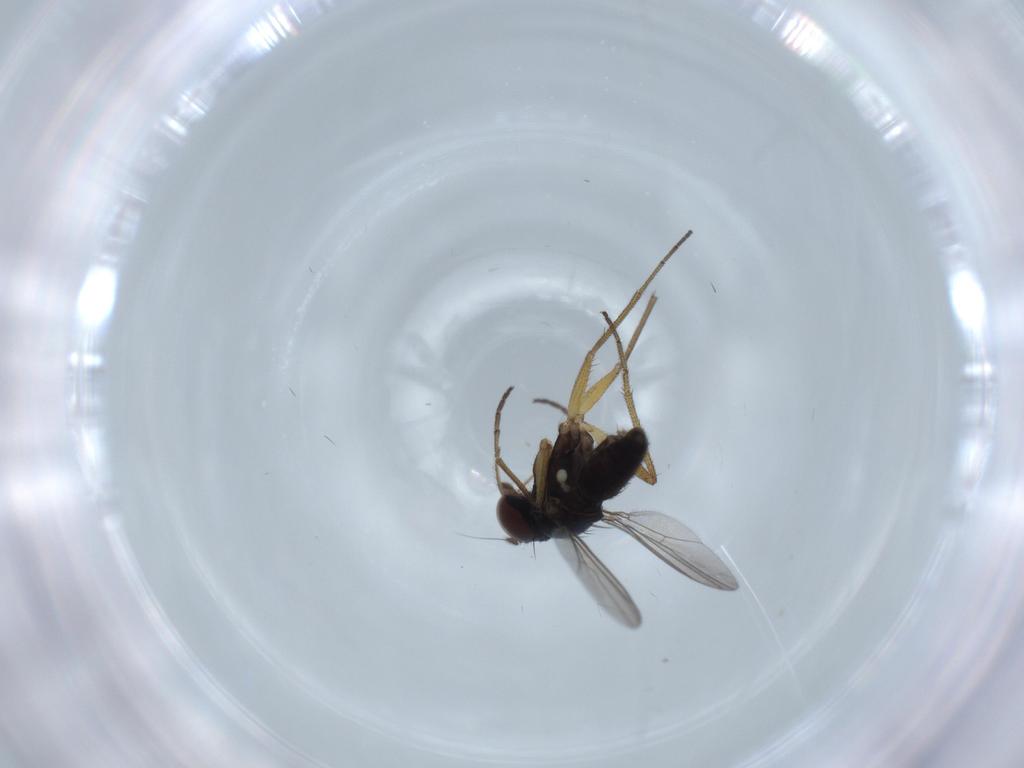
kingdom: Animalia
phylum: Arthropoda
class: Insecta
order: Diptera
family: Dolichopodidae
